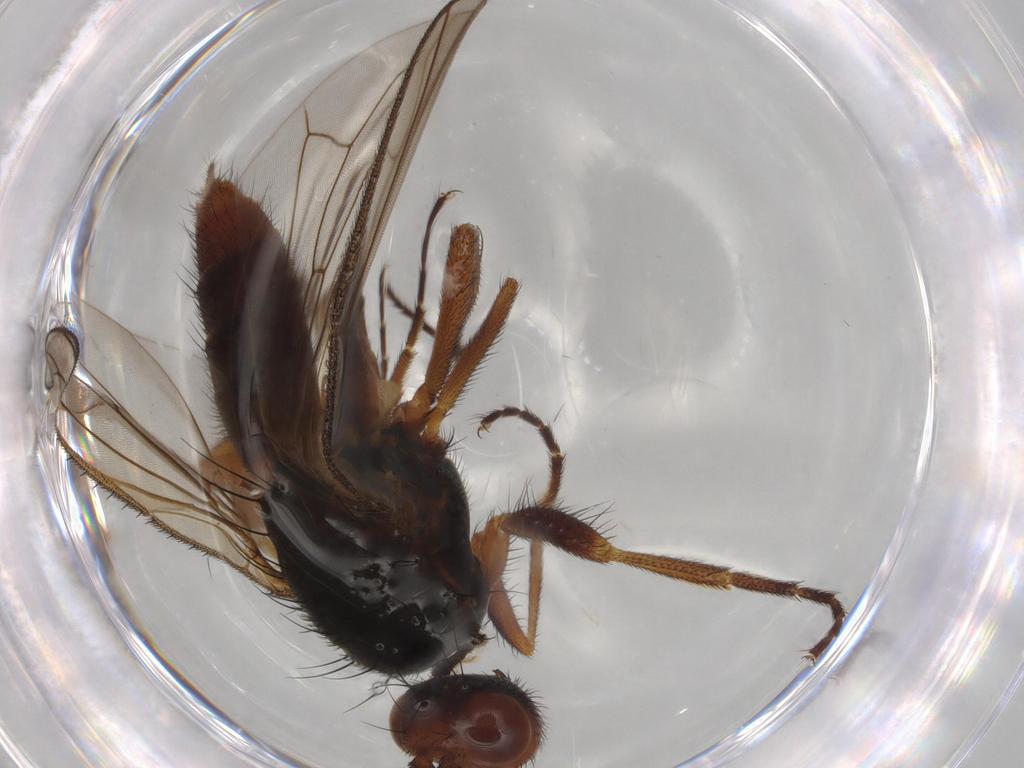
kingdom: Animalia
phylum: Arthropoda
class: Insecta
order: Diptera
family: Heleomyzidae
